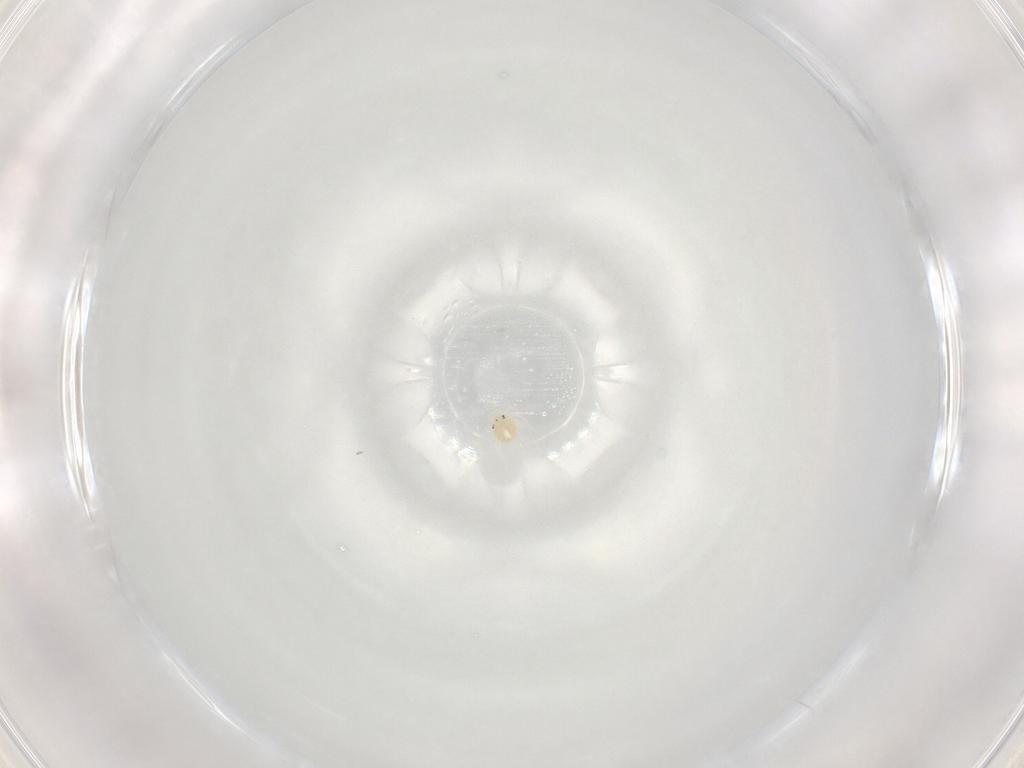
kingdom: Animalia
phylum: Arthropoda
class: Arachnida
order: Trombidiformes
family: Hydryphantidae
